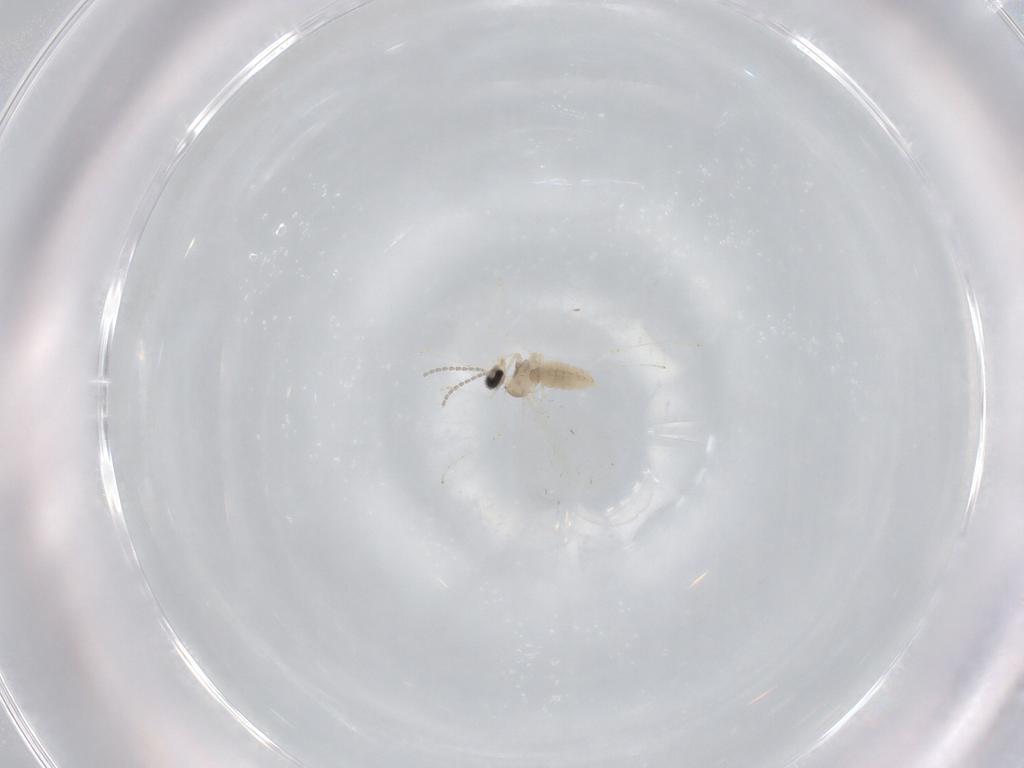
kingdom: Animalia
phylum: Arthropoda
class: Insecta
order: Diptera
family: Cecidomyiidae
